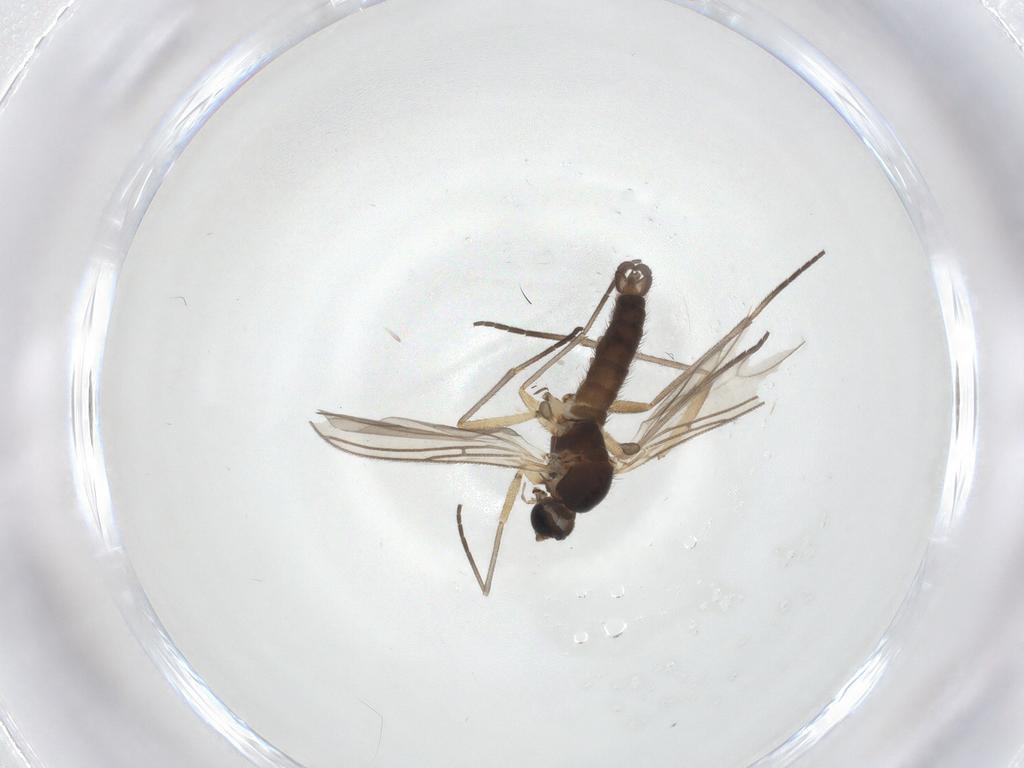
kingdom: Animalia
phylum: Arthropoda
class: Insecta
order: Diptera
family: Sciaridae
